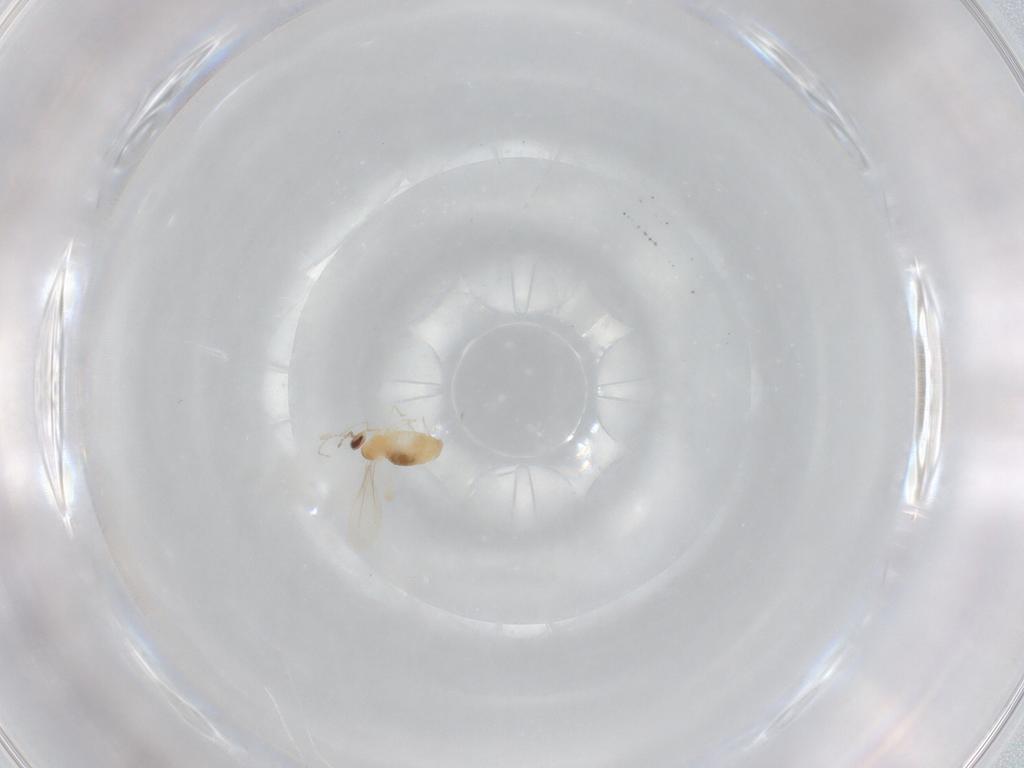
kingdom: Animalia
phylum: Arthropoda
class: Insecta
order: Diptera
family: Cecidomyiidae
